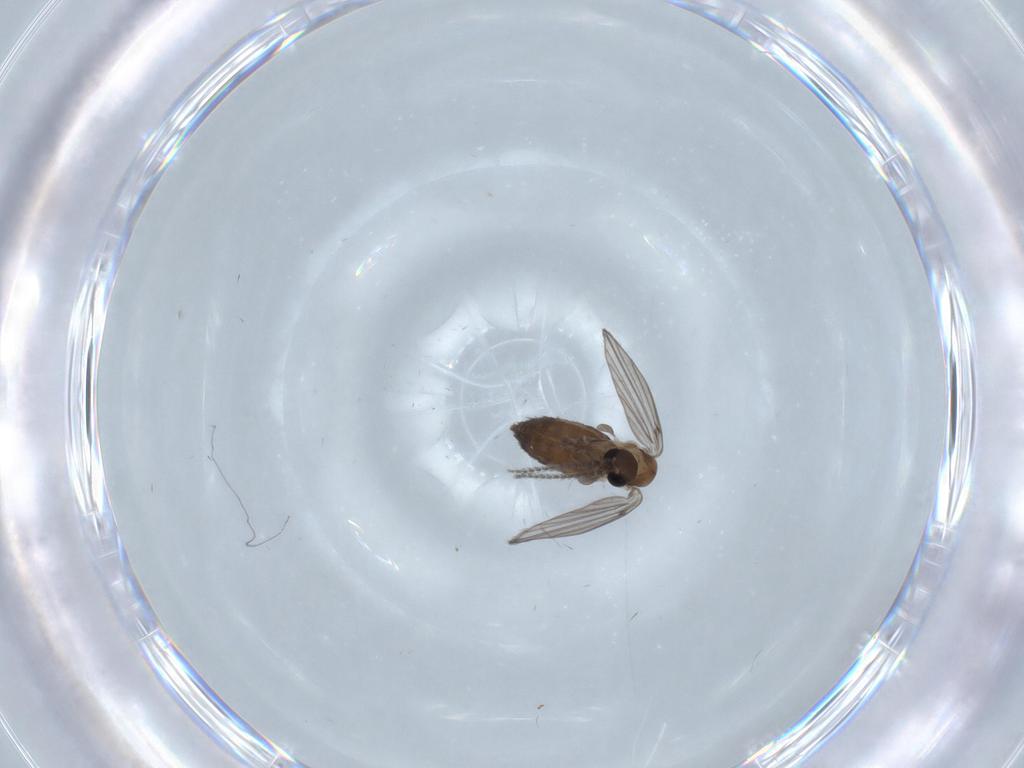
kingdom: Animalia
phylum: Arthropoda
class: Insecta
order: Diptera
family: Cecidomyiidae
